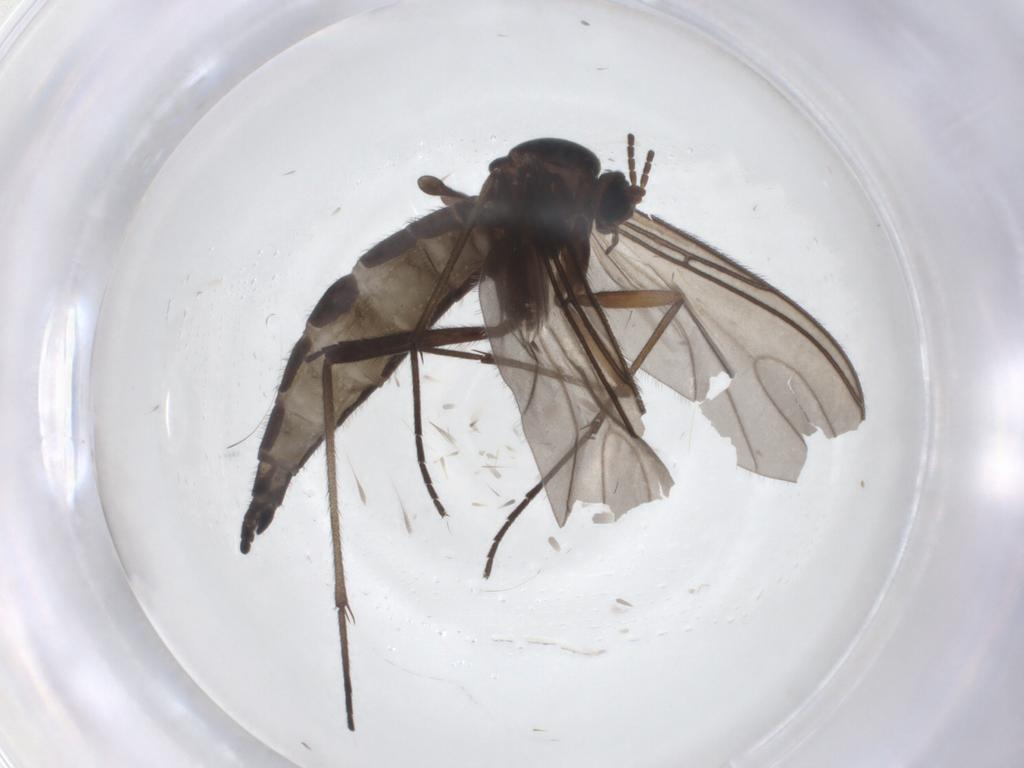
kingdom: Animalia
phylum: Arthropoda
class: Insecta
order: Diptera
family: Sciaridae
